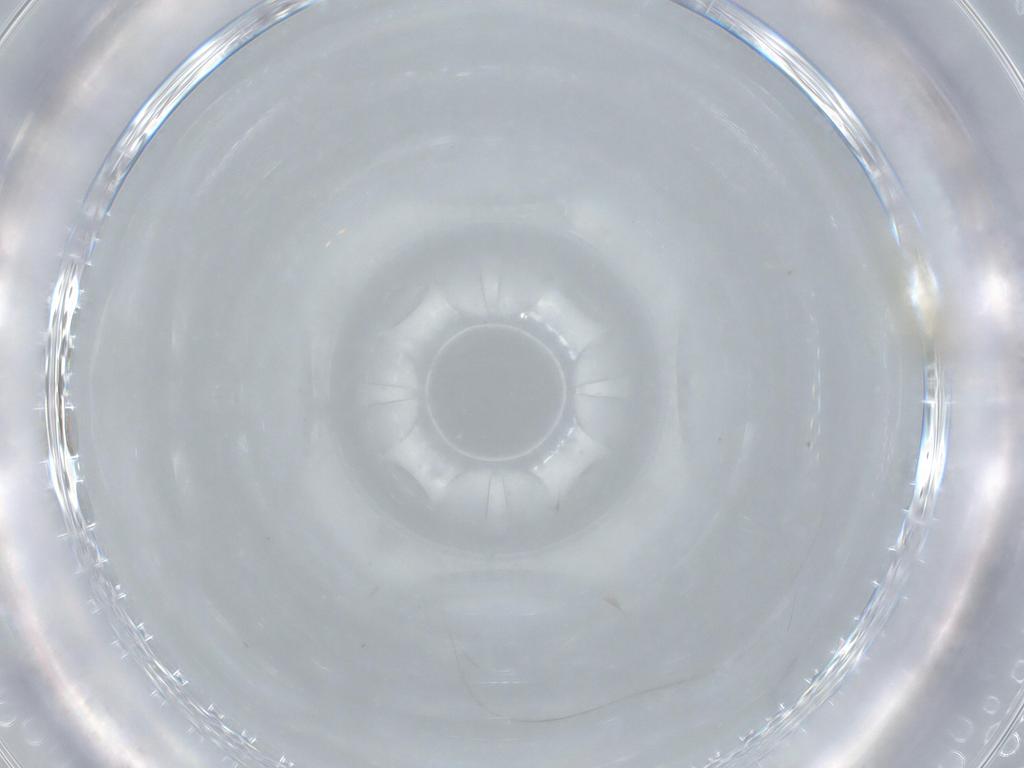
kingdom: Animalia
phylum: Arthropoda
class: Insecta
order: Diptera
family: Cecidomyiidae
